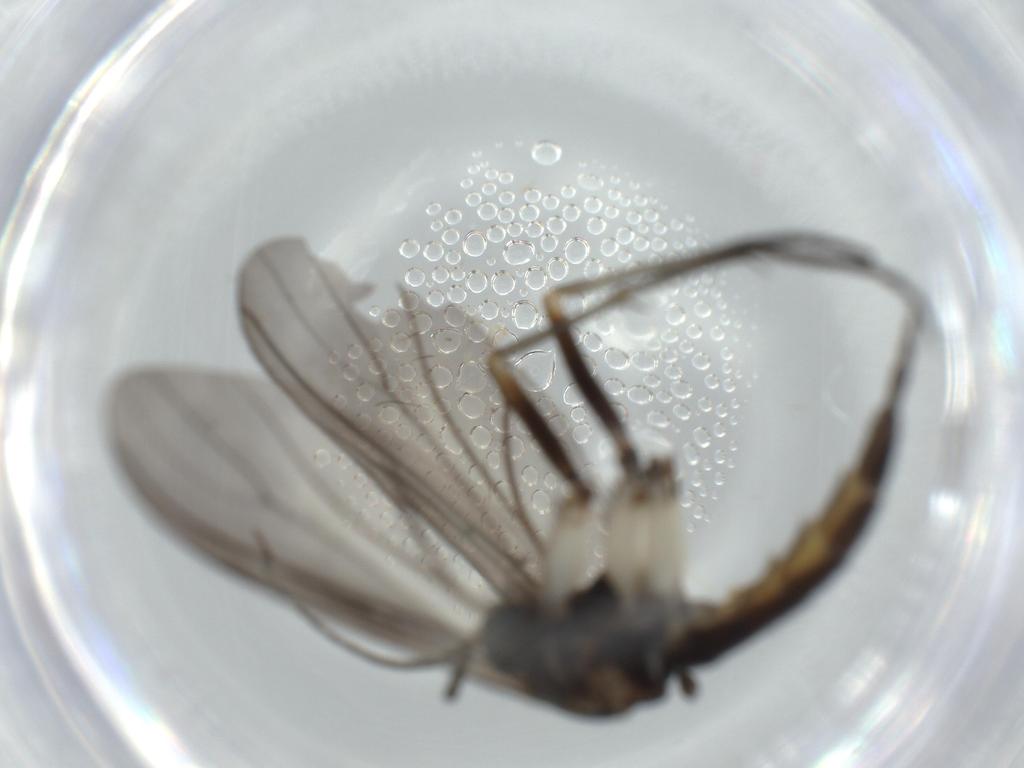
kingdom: Animalia
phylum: Arthropoda
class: Insecta
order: Diptera
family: Sciaridae
